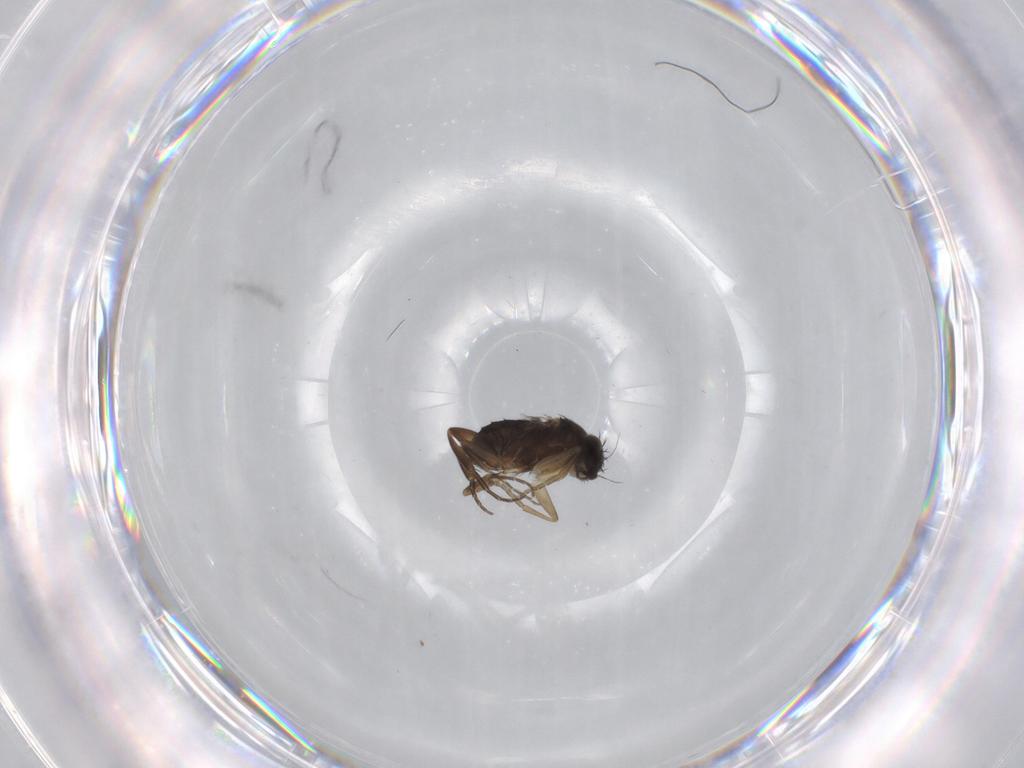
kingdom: Animalia
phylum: Arthropoda
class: Insecta
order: Diptera
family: Phoridae
